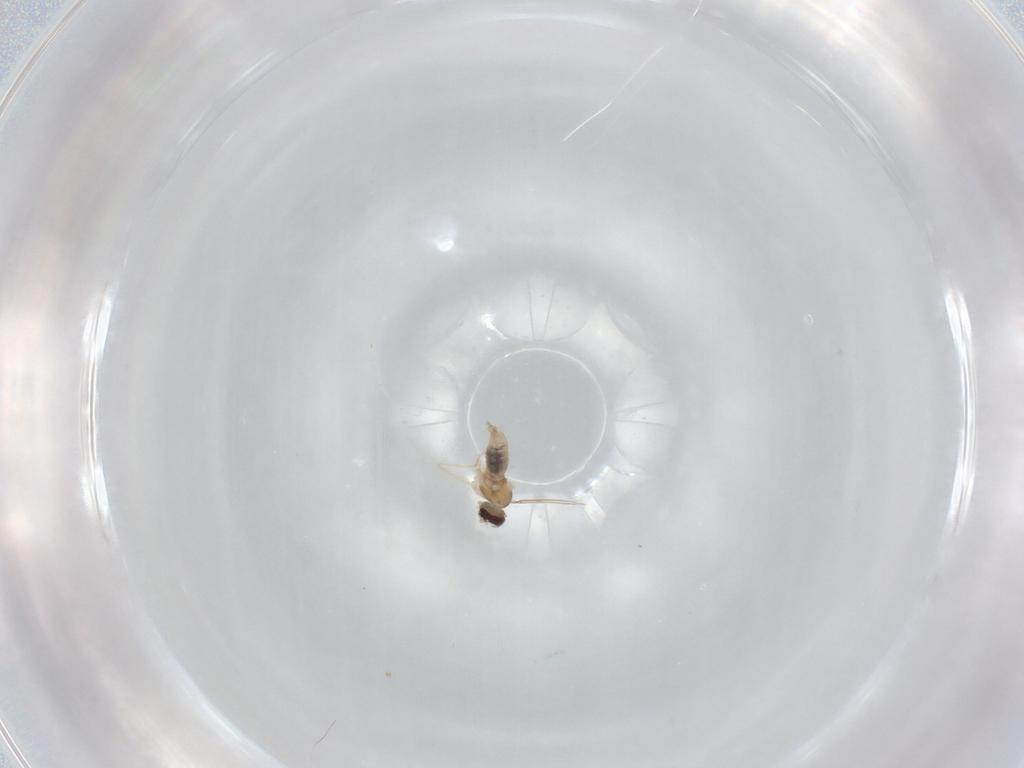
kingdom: Animalia
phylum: Arthropoda
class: Insecta
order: Diptera
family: Cecidomyiidae
